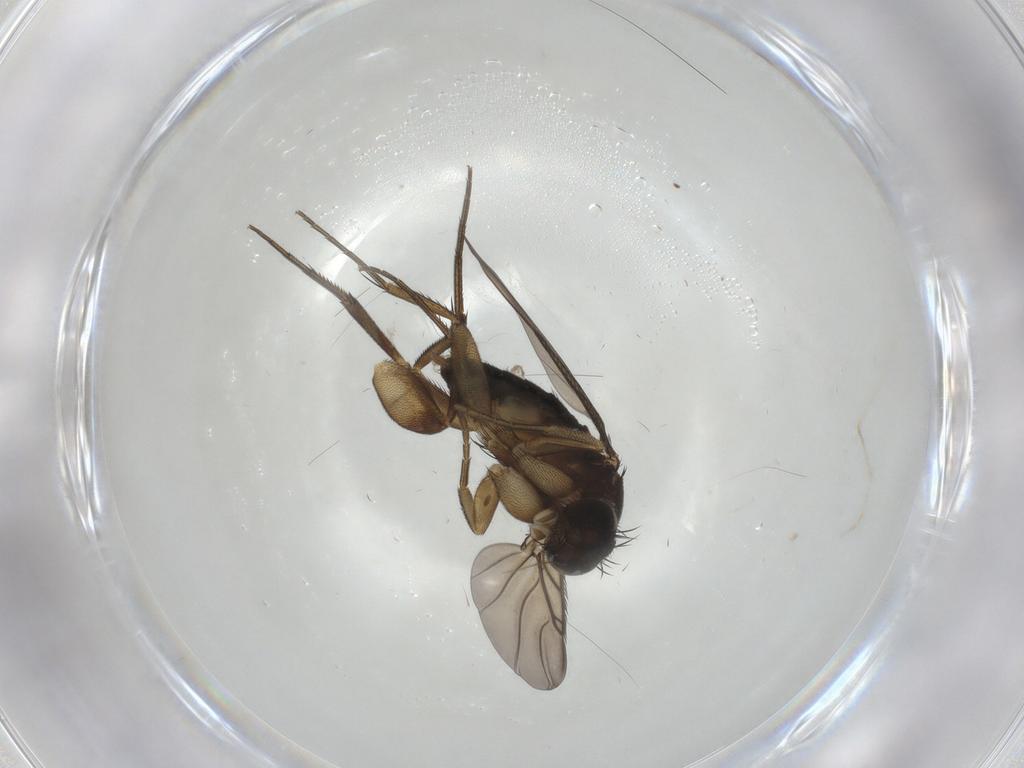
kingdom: Animalia
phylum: Arthropoda
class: Insecta
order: Diptera
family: Phoridae
